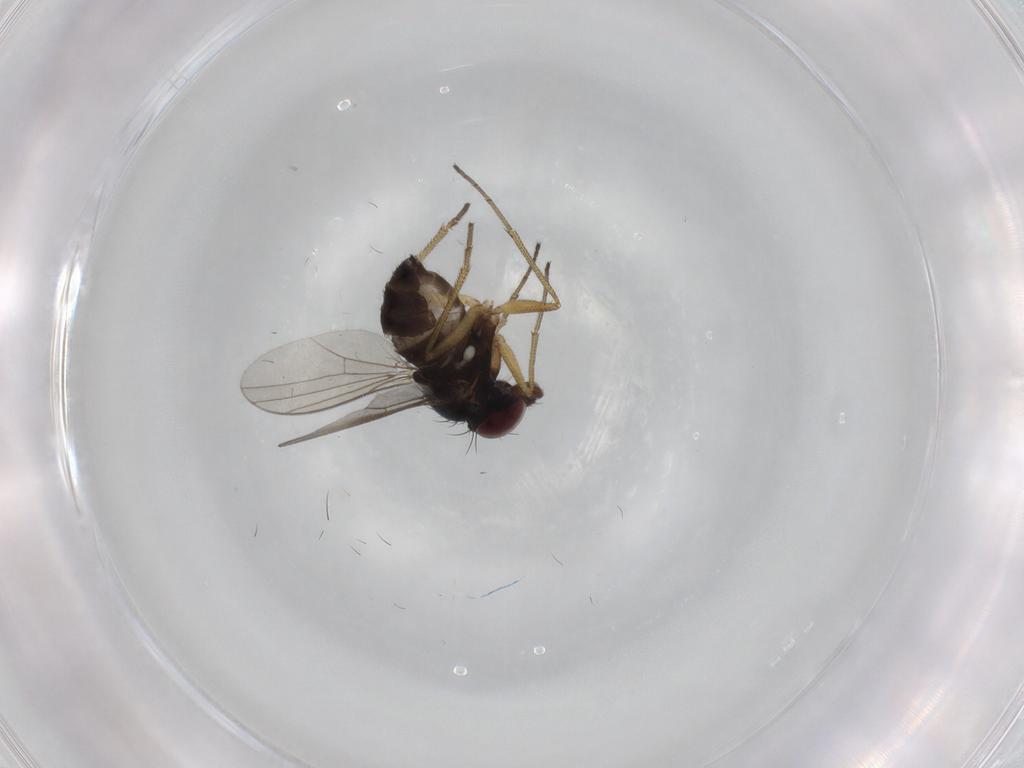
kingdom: Animalia
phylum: Arthropoda
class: Insecta
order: Diptera
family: Dolichopodidae
